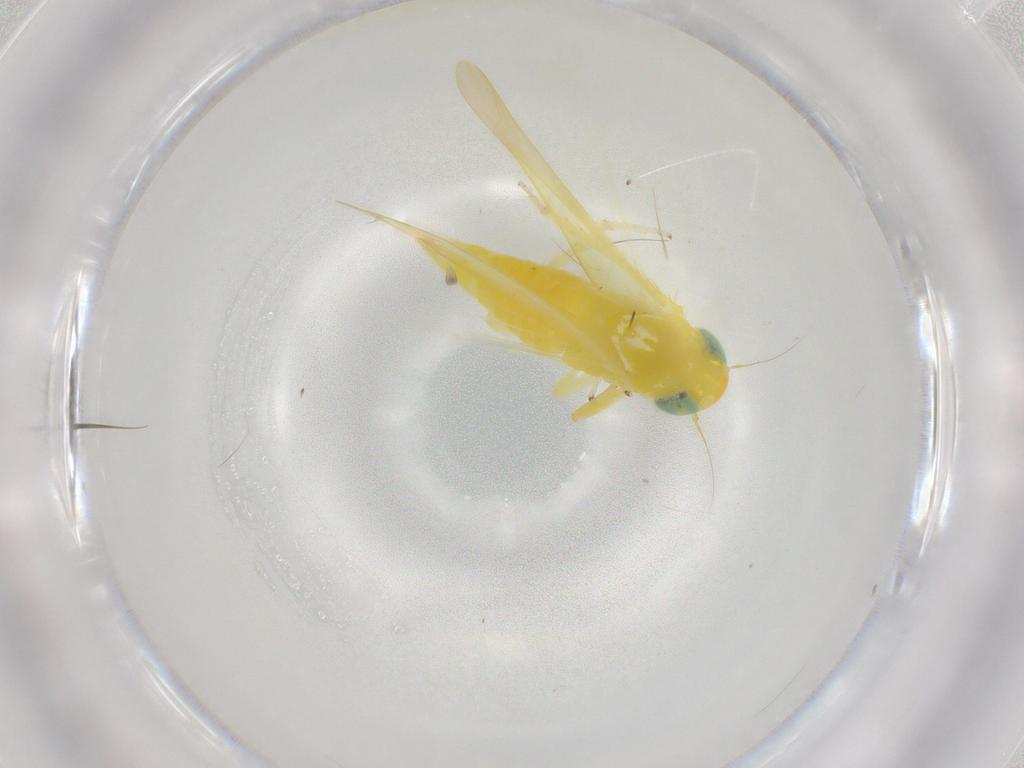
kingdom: Animalia
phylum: Arthropoda
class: Insecta
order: Hemiptera
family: Cicadellidae
